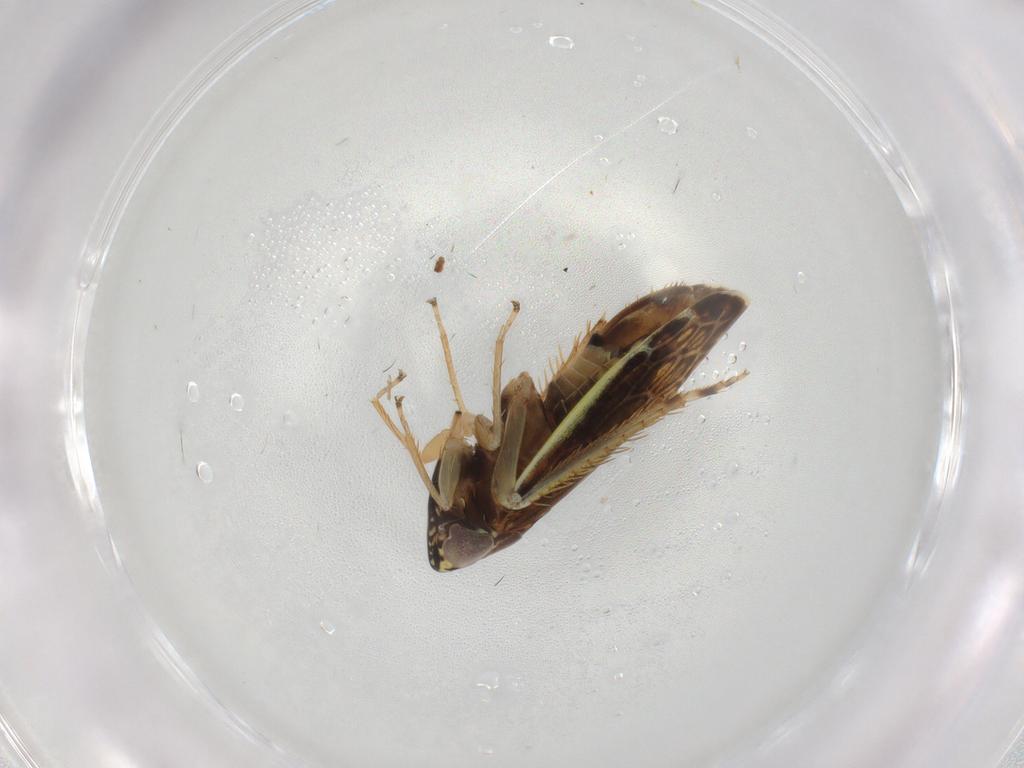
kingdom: Animalia
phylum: Arthropoda
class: Insecta
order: Hemiptera
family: Cicadellidae
